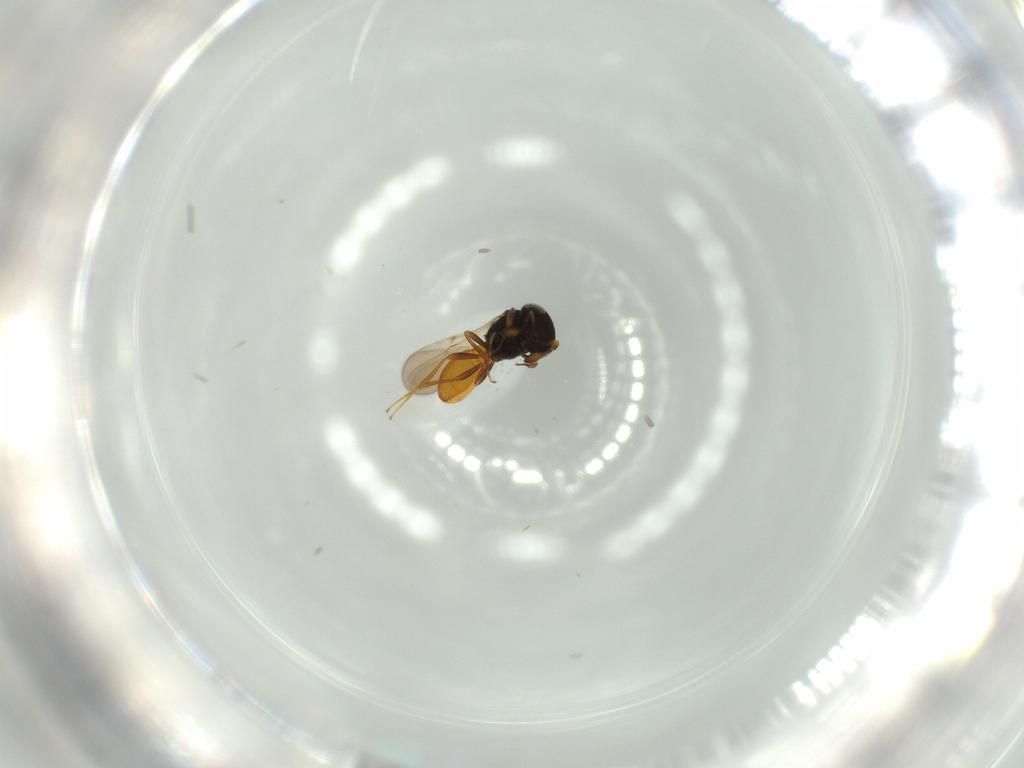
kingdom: Animalia
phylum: Arthropoda
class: Insecta
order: Hymenoptera
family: Scelionidae
